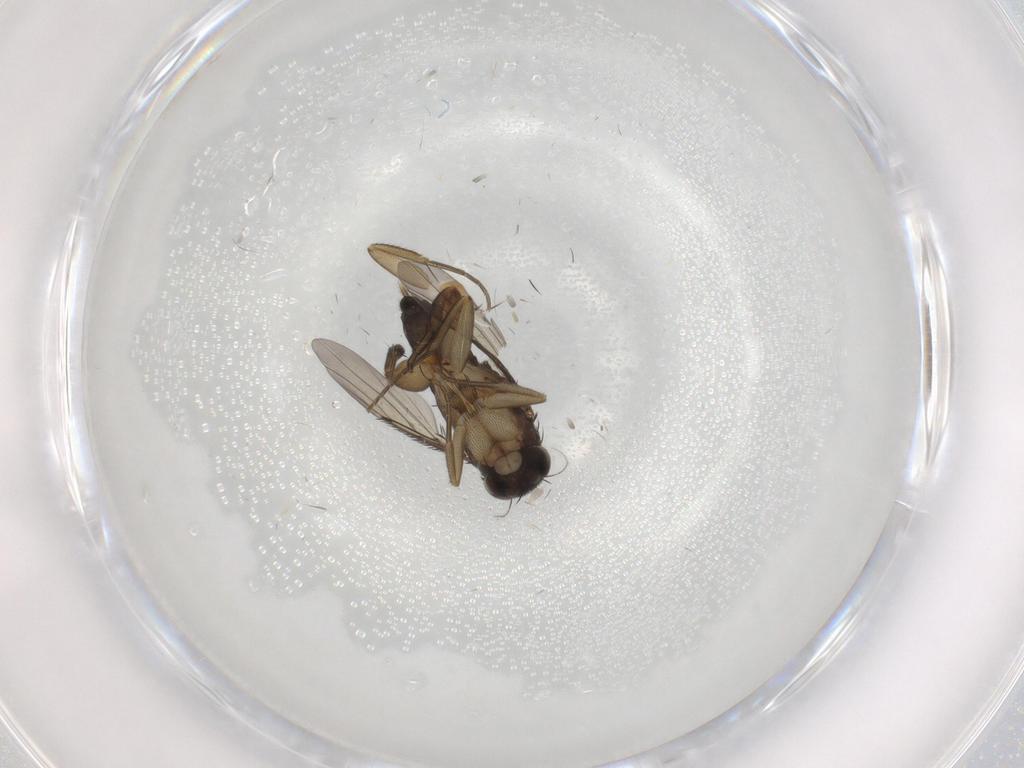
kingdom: Animalia
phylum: Arthropoda
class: Insecta
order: Diptera
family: Phoridae
